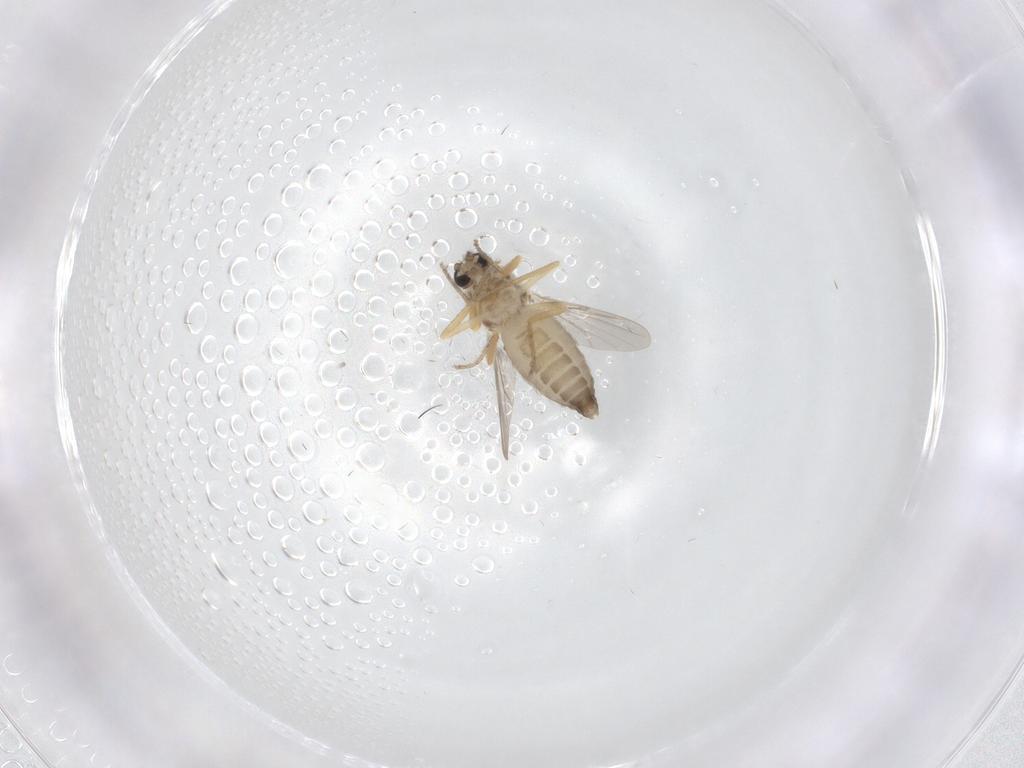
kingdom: Animalia
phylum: Arthropoda
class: Insecta
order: Diptera
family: Ceratopogonidae
